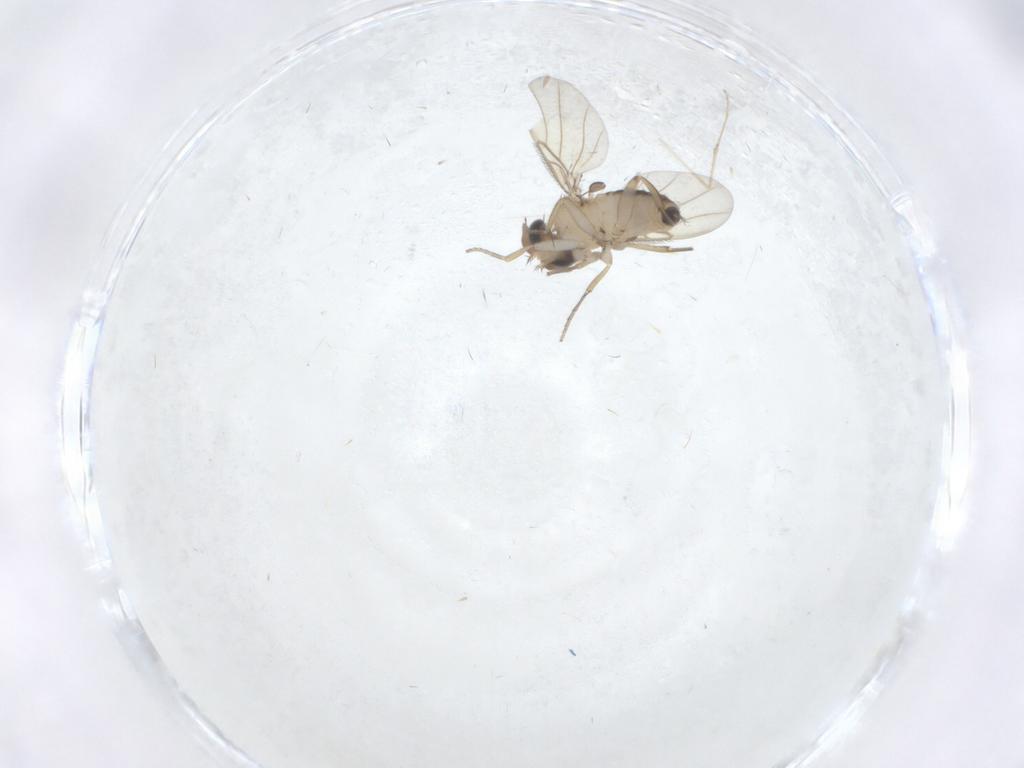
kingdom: Animalia
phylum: Arthropoda
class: Insecta
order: Diptera
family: Cecidomyiidae
